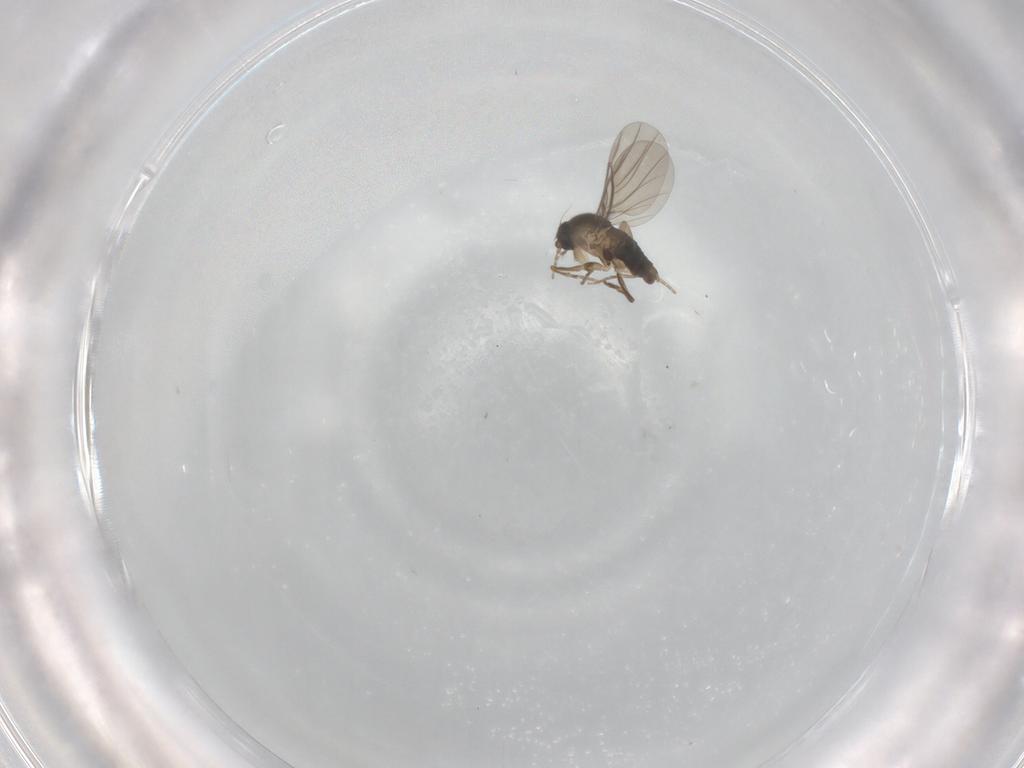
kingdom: Animalia
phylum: Arthropoda
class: Insecta
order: Diptera
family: Phoridae
